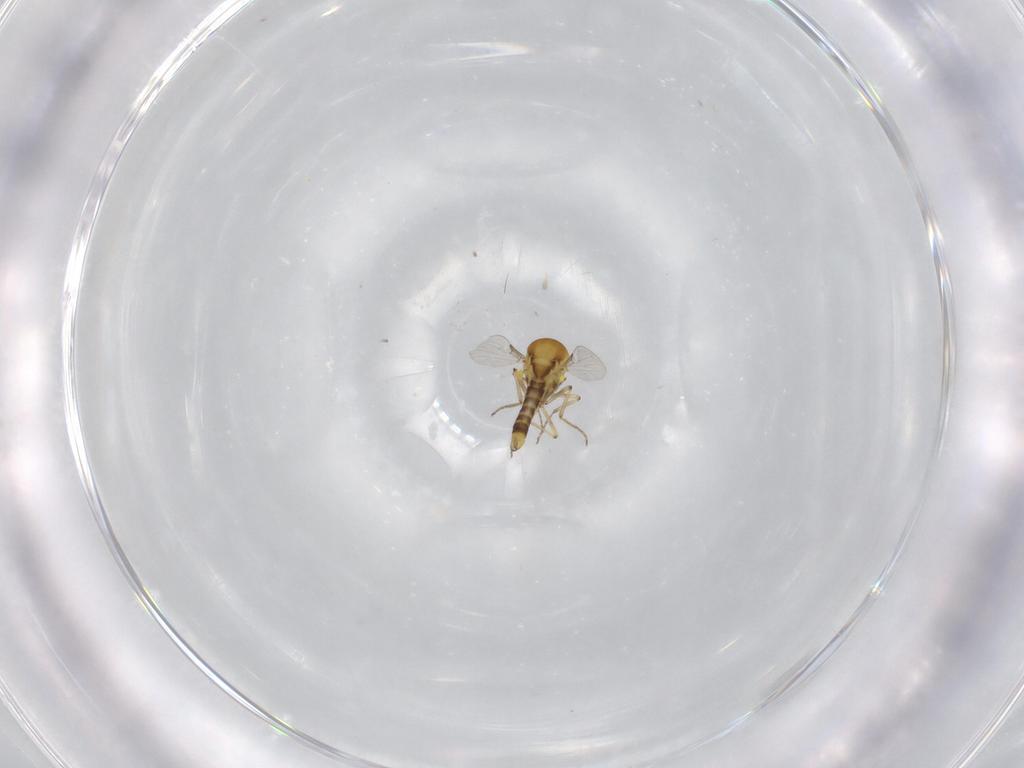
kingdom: Animalia
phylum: Arthropoda
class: Insecta
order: Diptera
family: Ceratopogonidae
